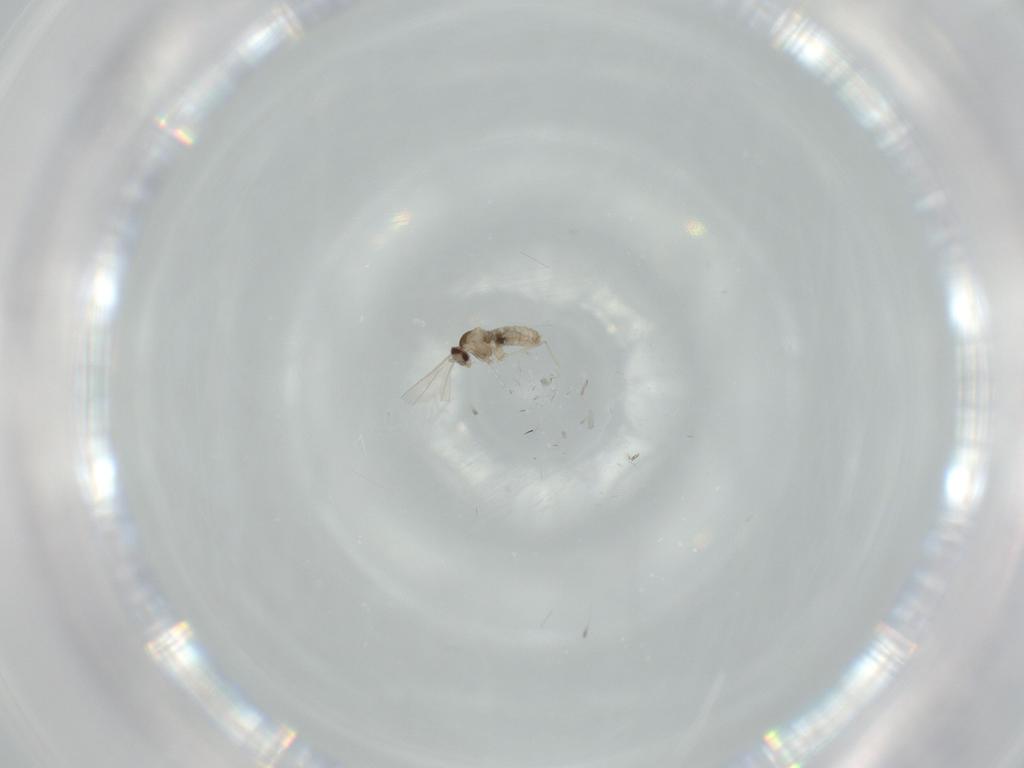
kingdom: Animalia
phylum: Arthropoda
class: Insecta
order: Diptera
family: Cecidomyiidae
